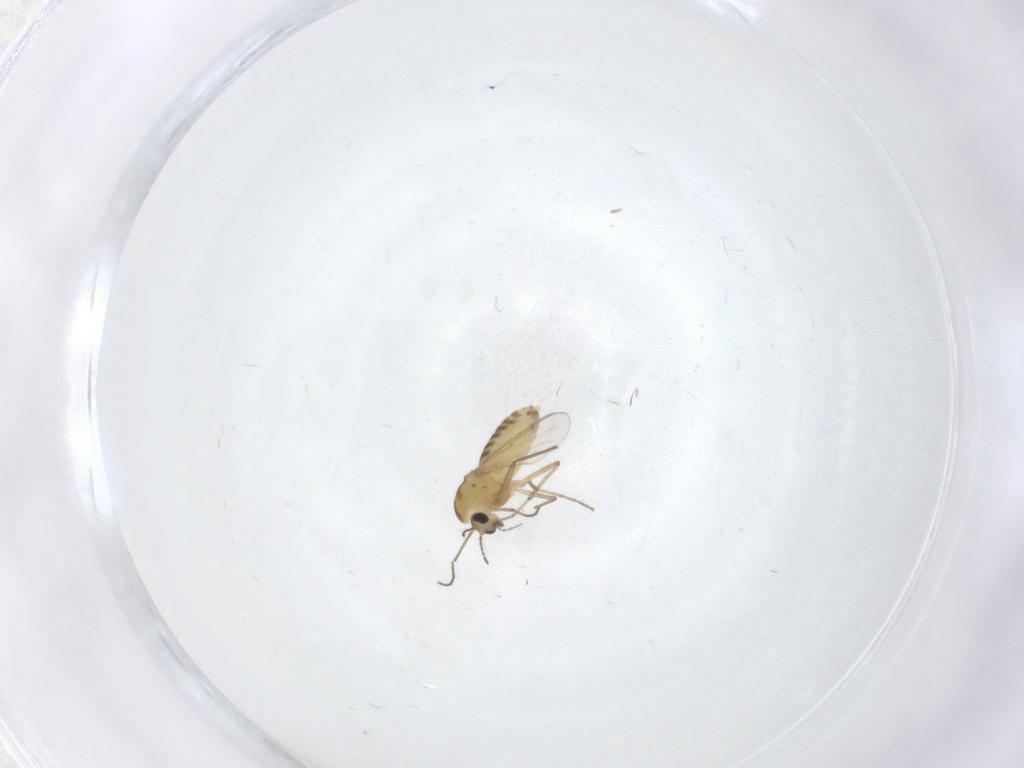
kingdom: Animalia
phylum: Arthropoda
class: Insecta
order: Diptera
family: Chironomidae
